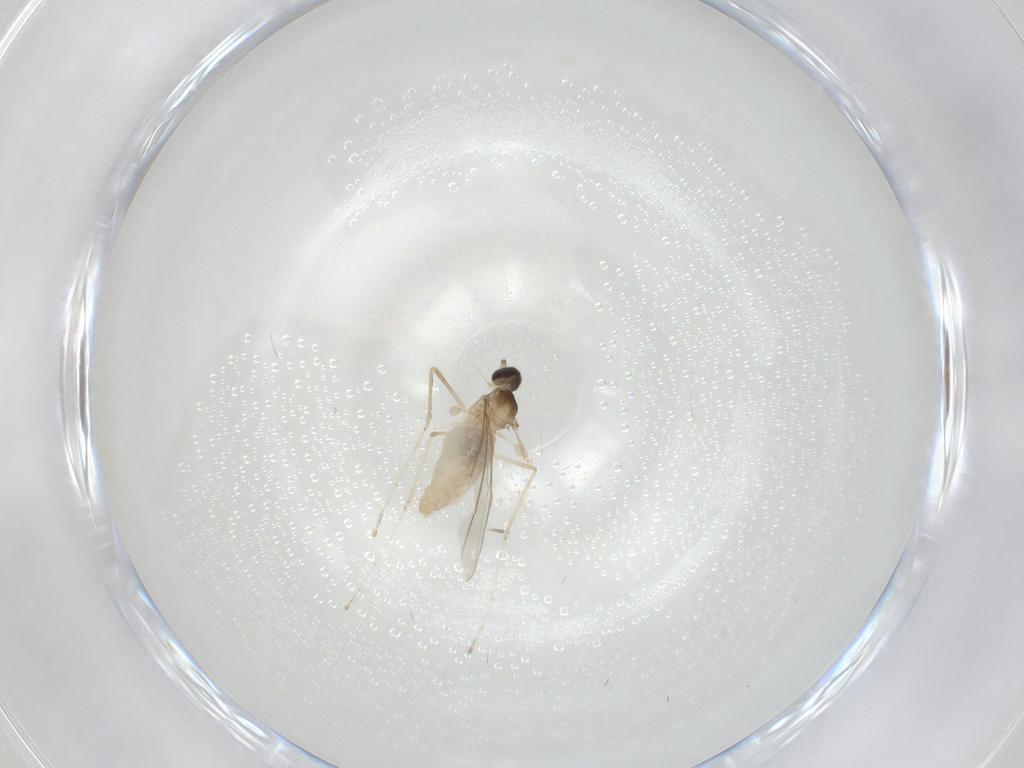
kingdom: Animalia
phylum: Arthropoda
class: Insecta
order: Diptera
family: Cecidomyiidae
